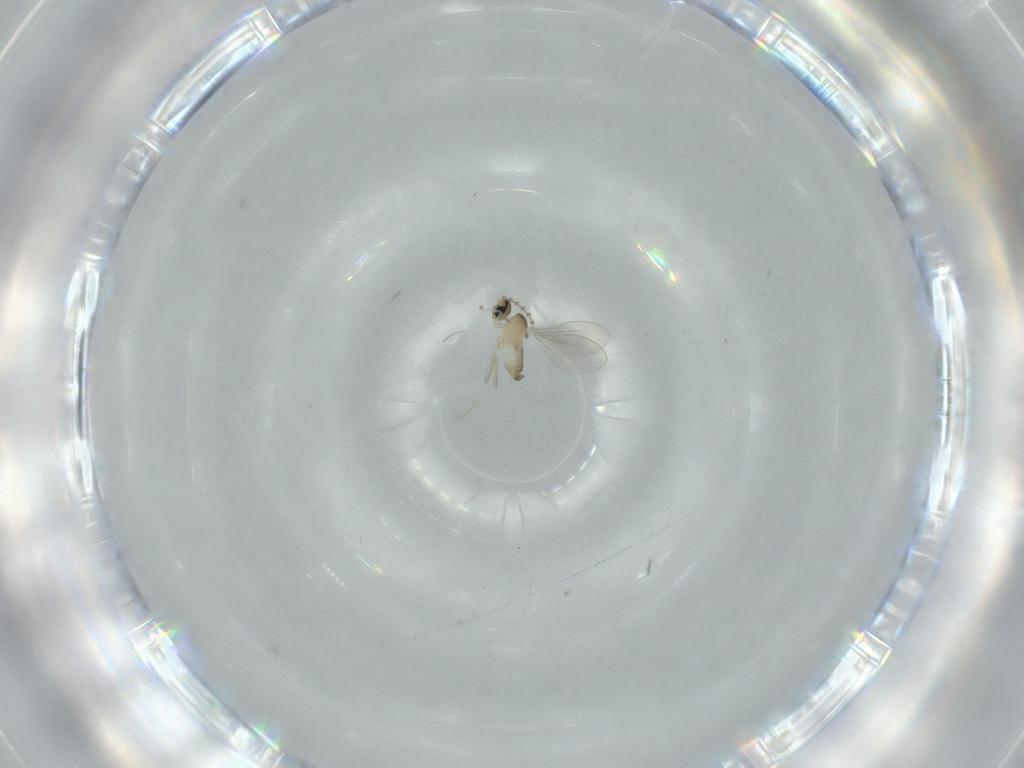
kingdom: Animalia
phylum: Arthropoda
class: Insecta
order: Diptera
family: Cecidomyiidae
